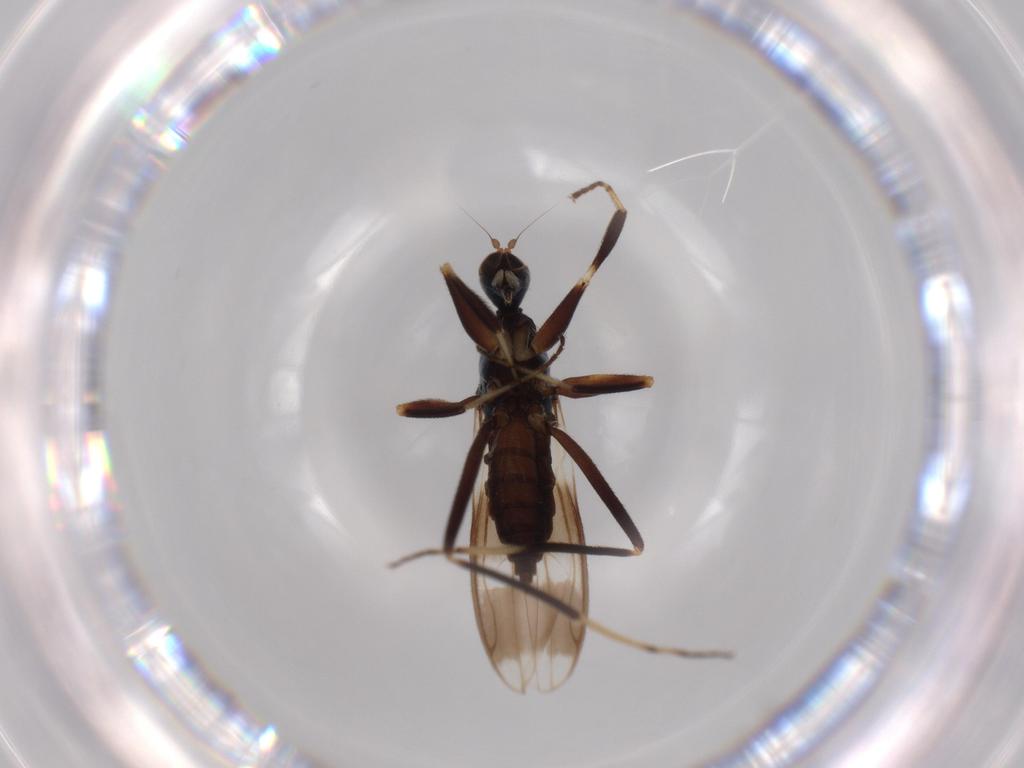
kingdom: Animalia
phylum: Arthropoda
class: Insecta
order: Diptera
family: Hybotidae
